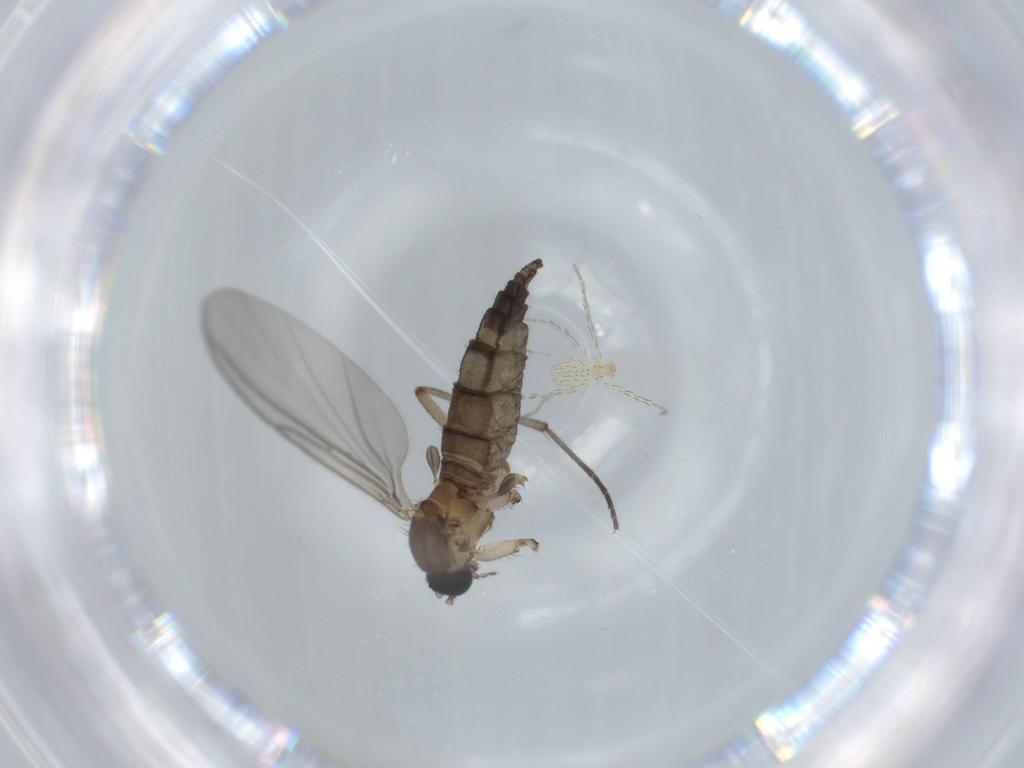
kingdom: Animalia
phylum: Arthropoda
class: Insecta
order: Diptera
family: Sciaridae
